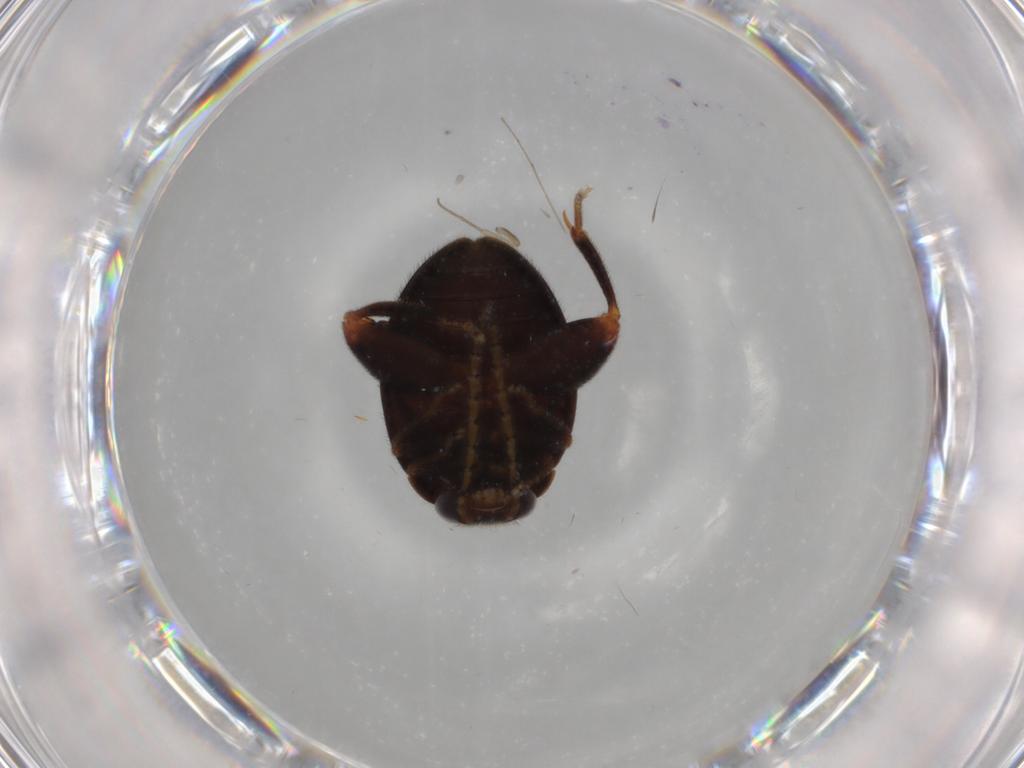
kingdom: Animalia
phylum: Arthropoda
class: Insecta
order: Coleoptera
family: Scirtidae
